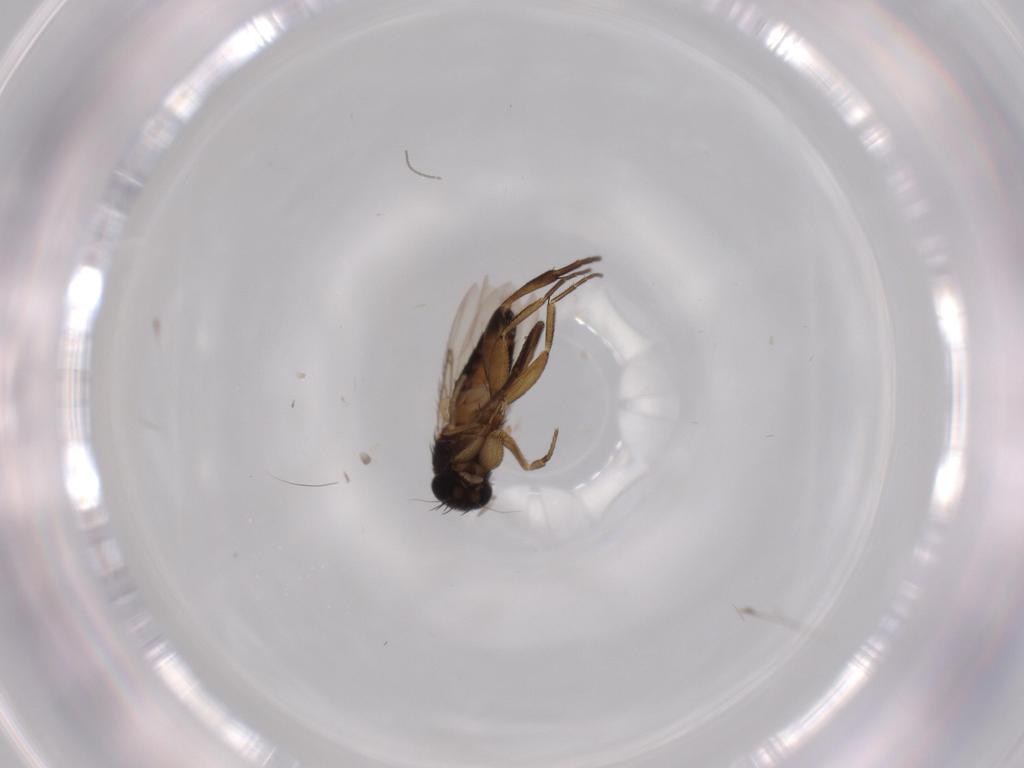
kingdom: Animalia
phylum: Arthropoda
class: Insecta
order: Diptera
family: Phoridae
